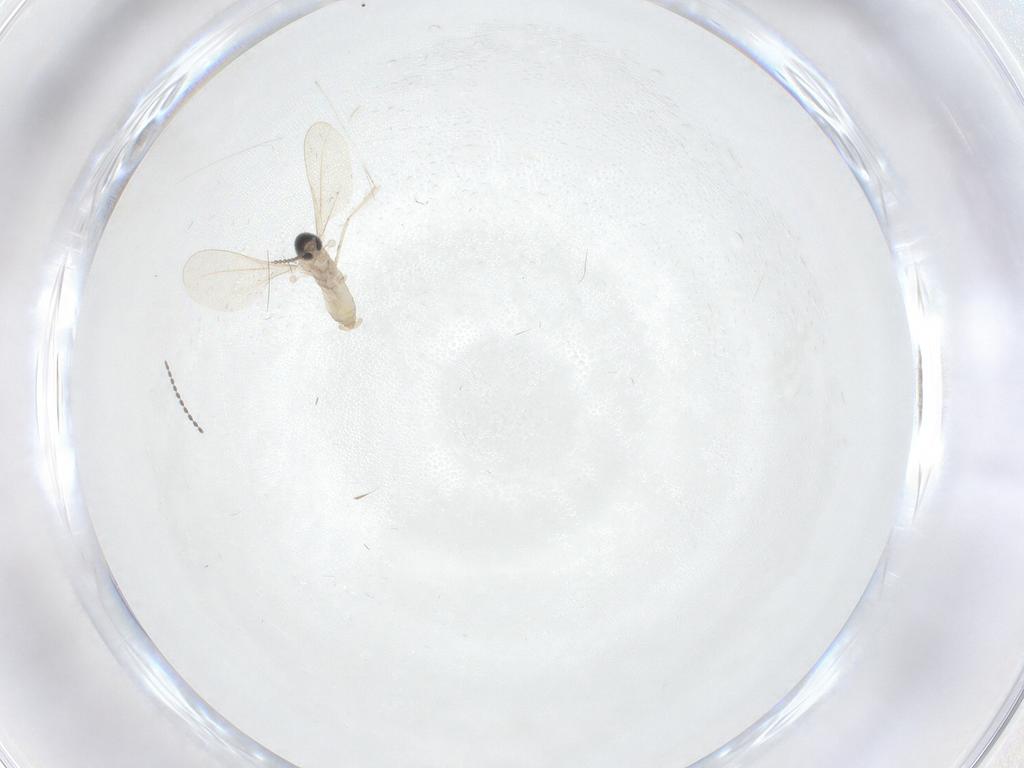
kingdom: Animalia
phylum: Arthropoda
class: Insecta
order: Diptera
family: Cecidomyiidae
